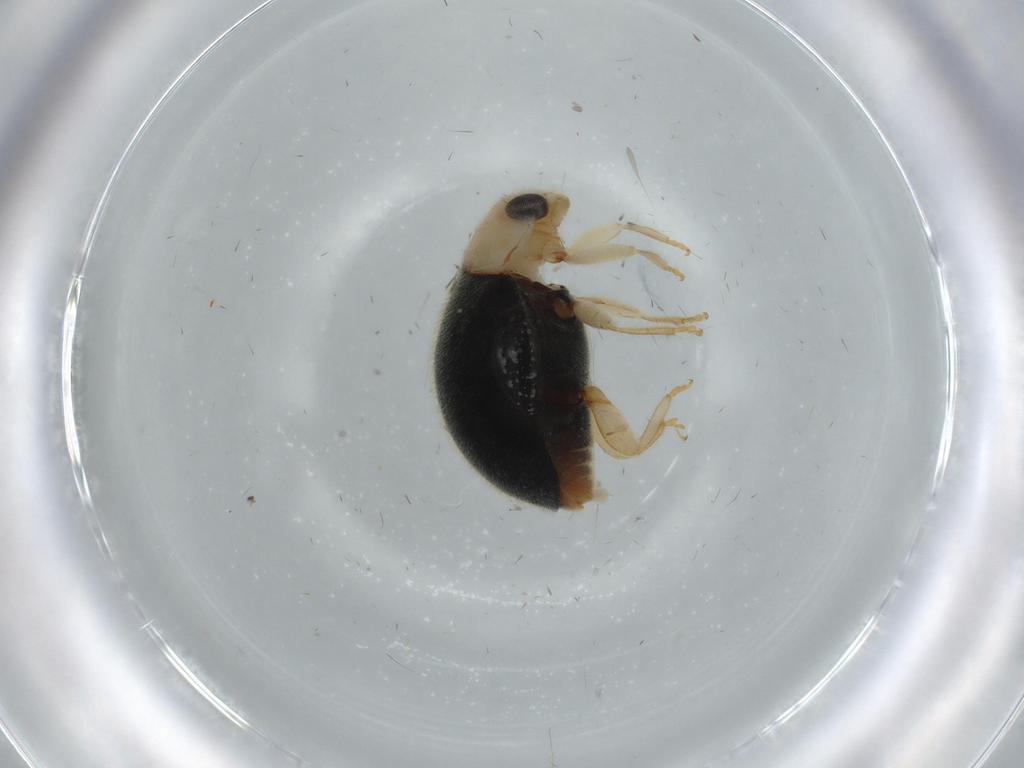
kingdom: Animalia
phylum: Arthropoda
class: Insecta
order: Coleoptera
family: Coccinellidae
